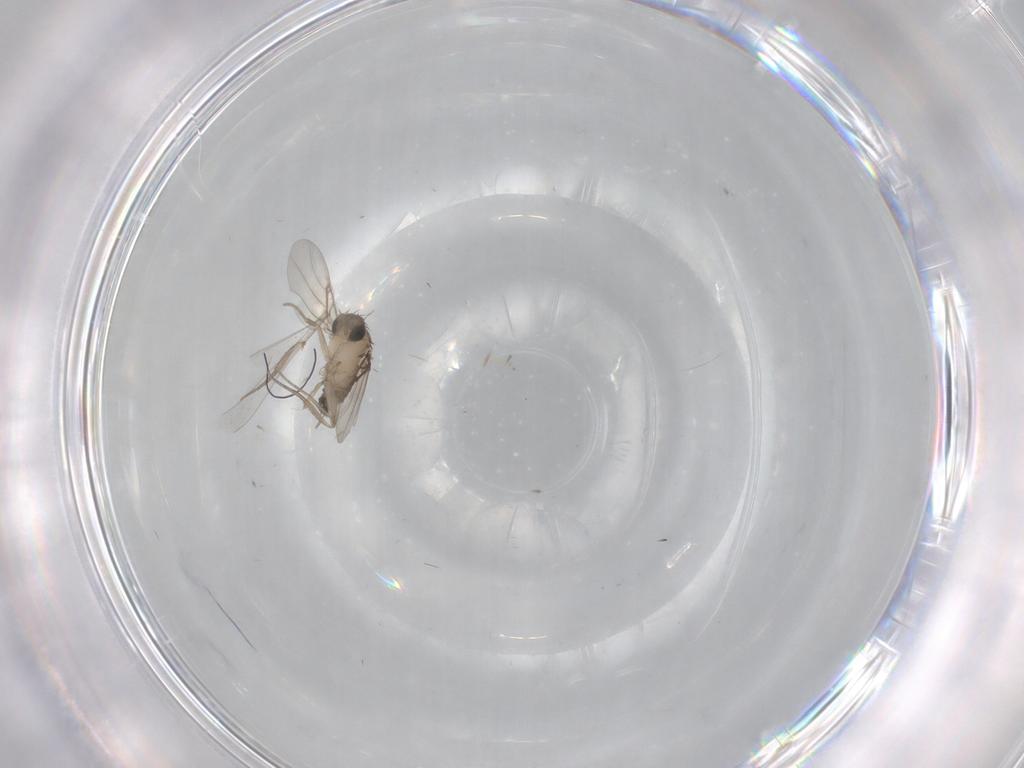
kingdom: Animalia
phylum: Arthropoda
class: Insecta
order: Diptera
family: Phoridae
